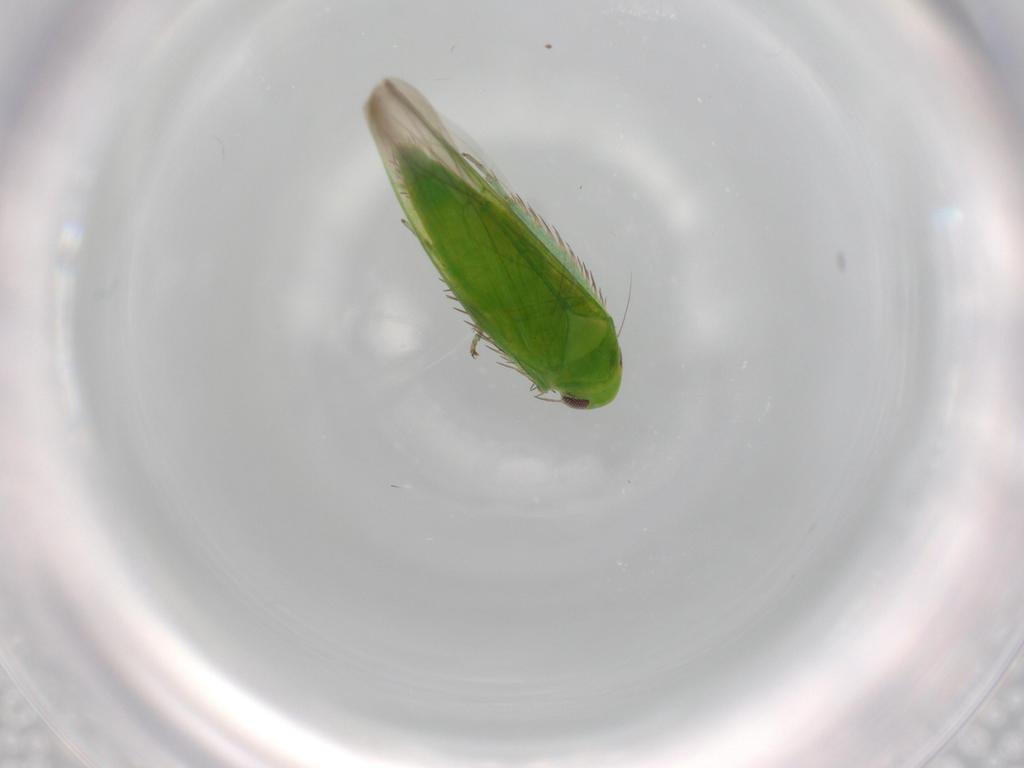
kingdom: Animalia
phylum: Arthropoda
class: Insecta
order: Hemiptera
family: Cicadellidae
